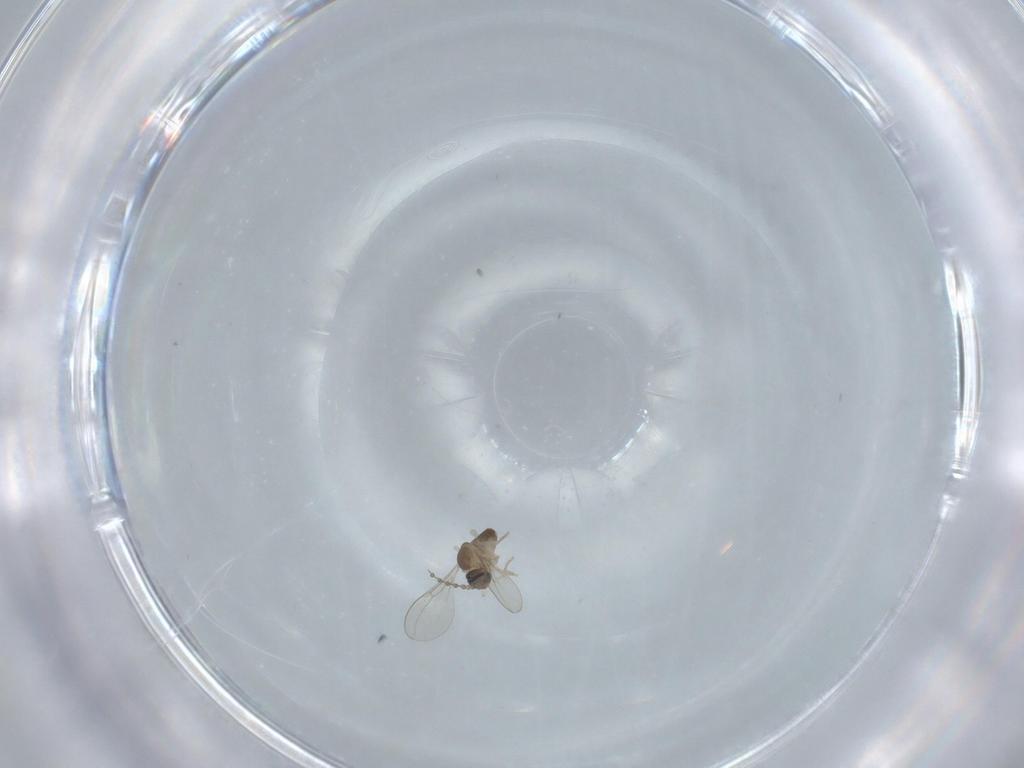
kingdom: Animalia
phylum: Arthropoda
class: Insecta
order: Diptera
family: Cecidomyiidae
